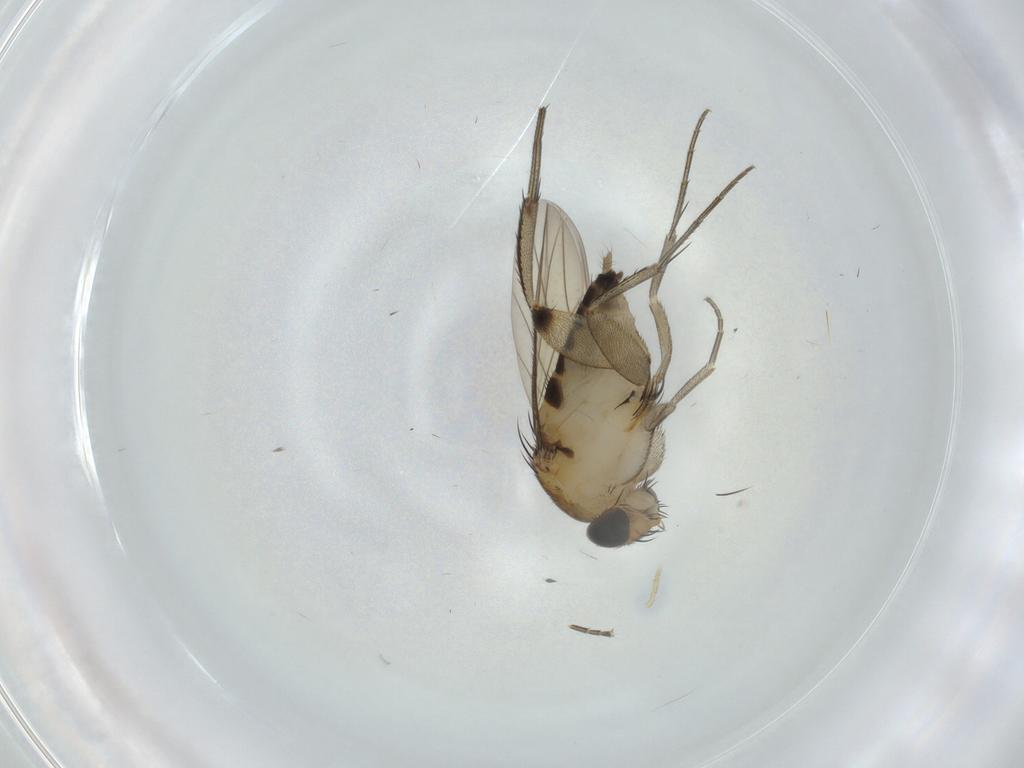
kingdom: Animalia
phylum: Arthropoda
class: Insecta
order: Diptera
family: Phoridae
